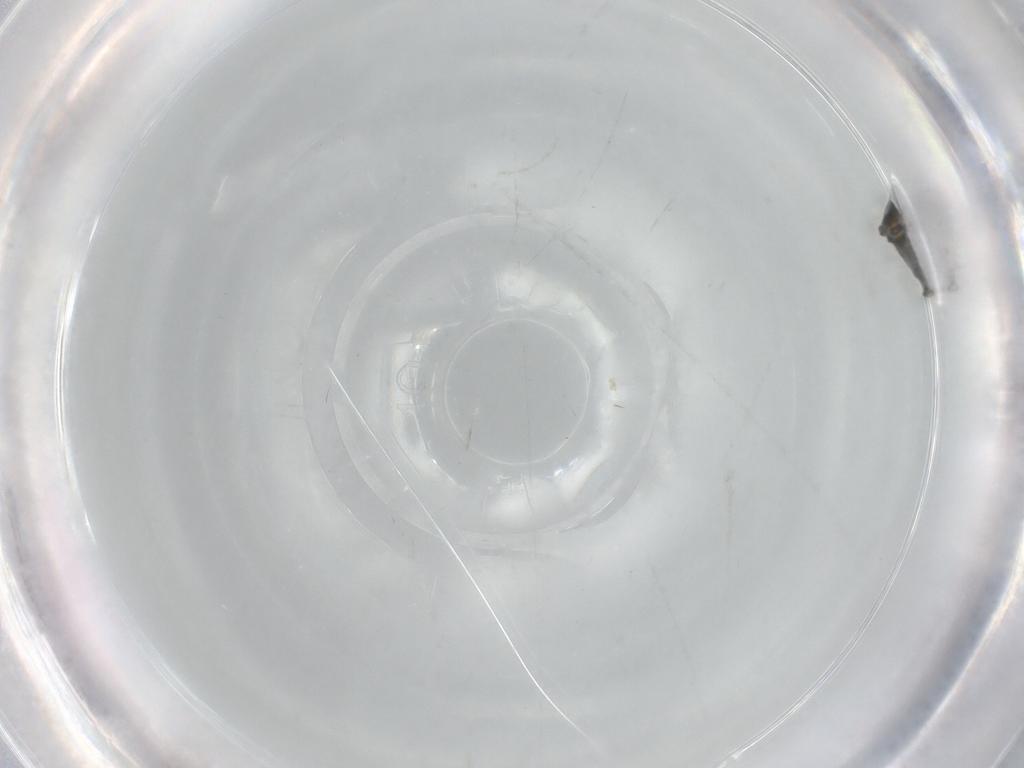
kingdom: Animalia
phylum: Arthropoda
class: Insecta
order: Diptera
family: Cecidomyiidae
